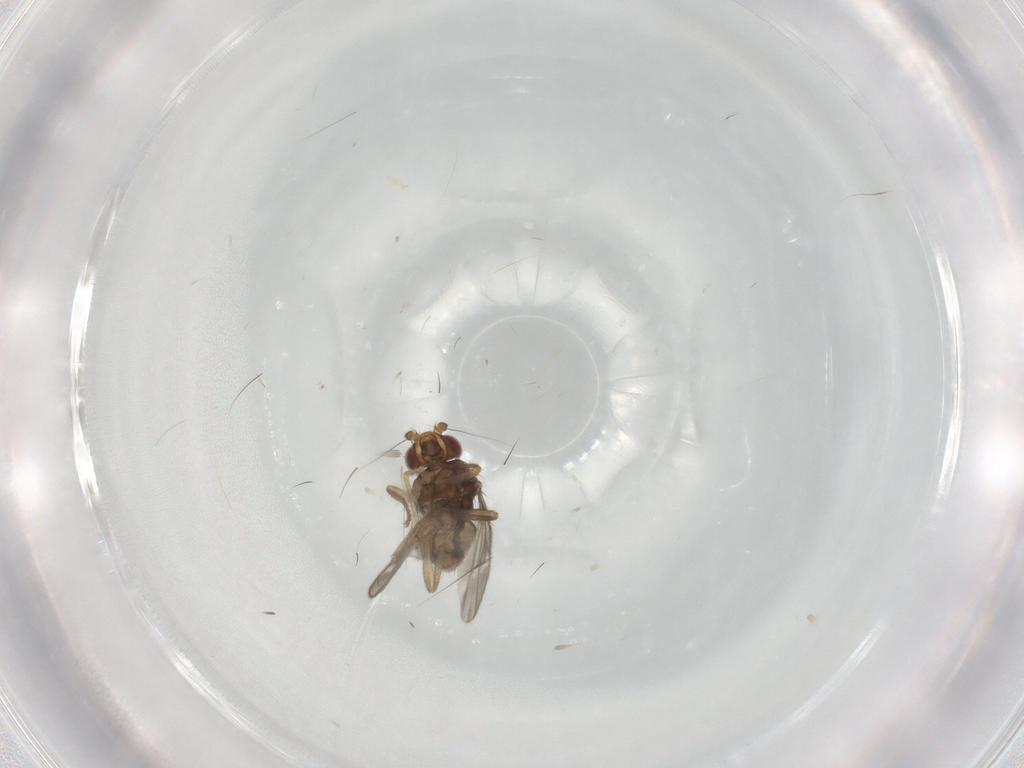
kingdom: Animalia
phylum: Arthropoda
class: Insecta
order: Diptera
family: Sphaeroceridae
